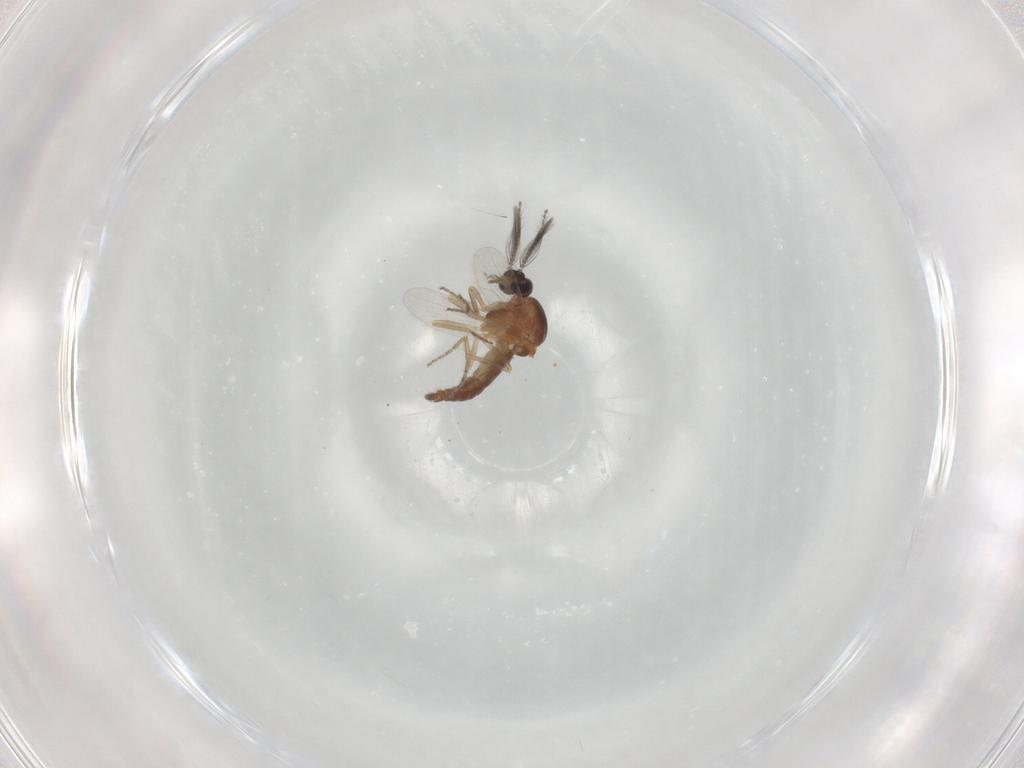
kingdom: Animalia
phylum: Arthropoda
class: Insecta
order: Diptera
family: Ceratopogonidae
